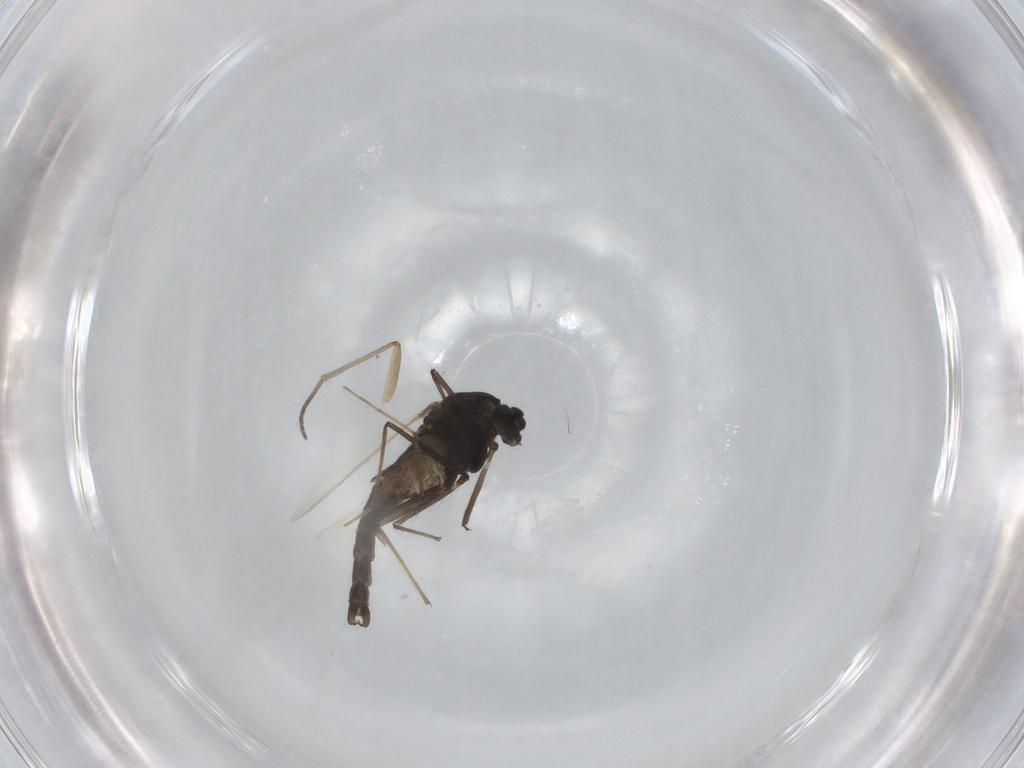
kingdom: Animalia
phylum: Arthropoda
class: Insecta
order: Diptera
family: Chironomidae
